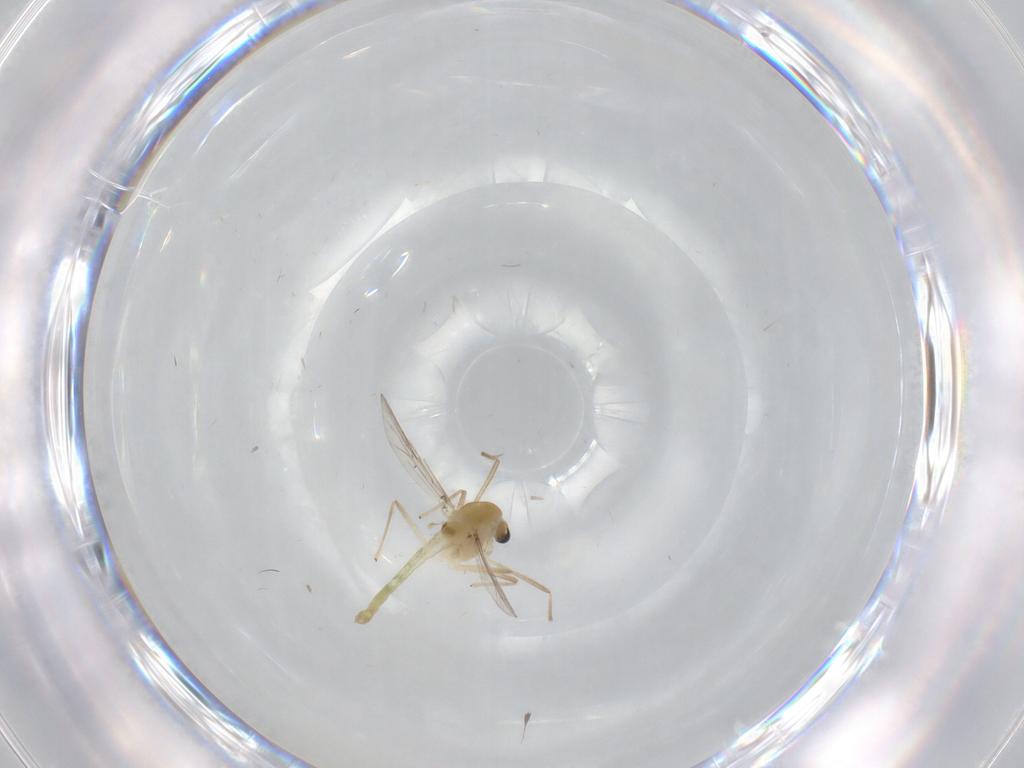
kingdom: Animalia
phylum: Arthropoda
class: Insecta
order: Diptera
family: Chironomidae
